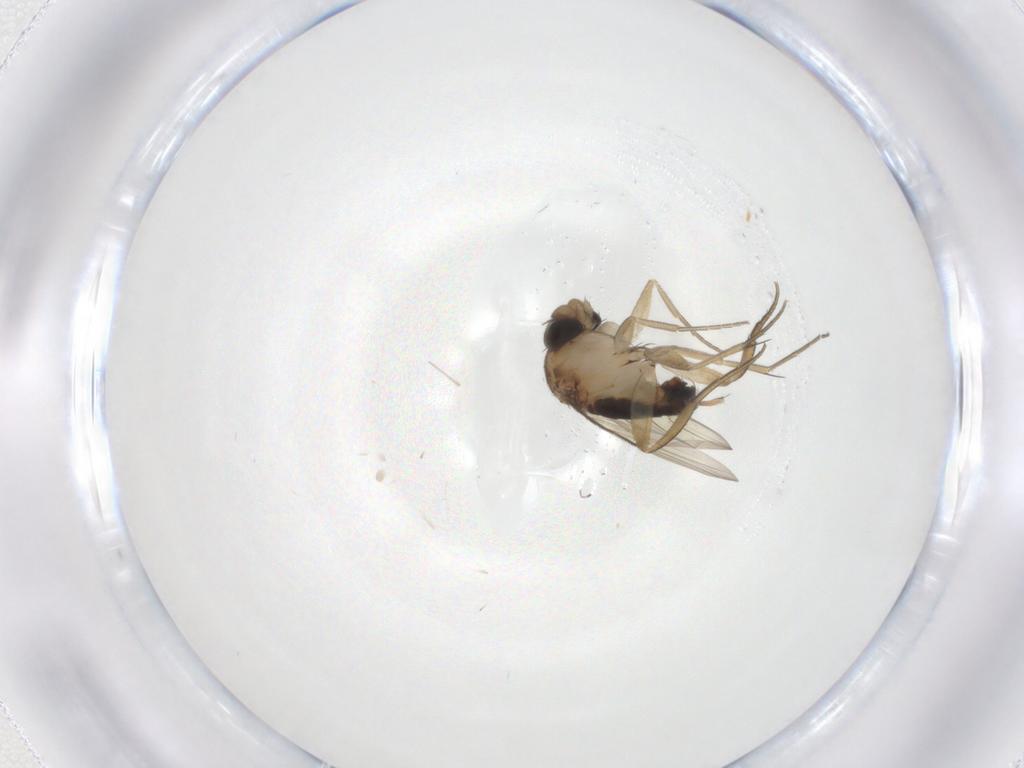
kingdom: Animalia
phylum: Arthropoda
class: Insecta
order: Diptera
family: Phoridae
